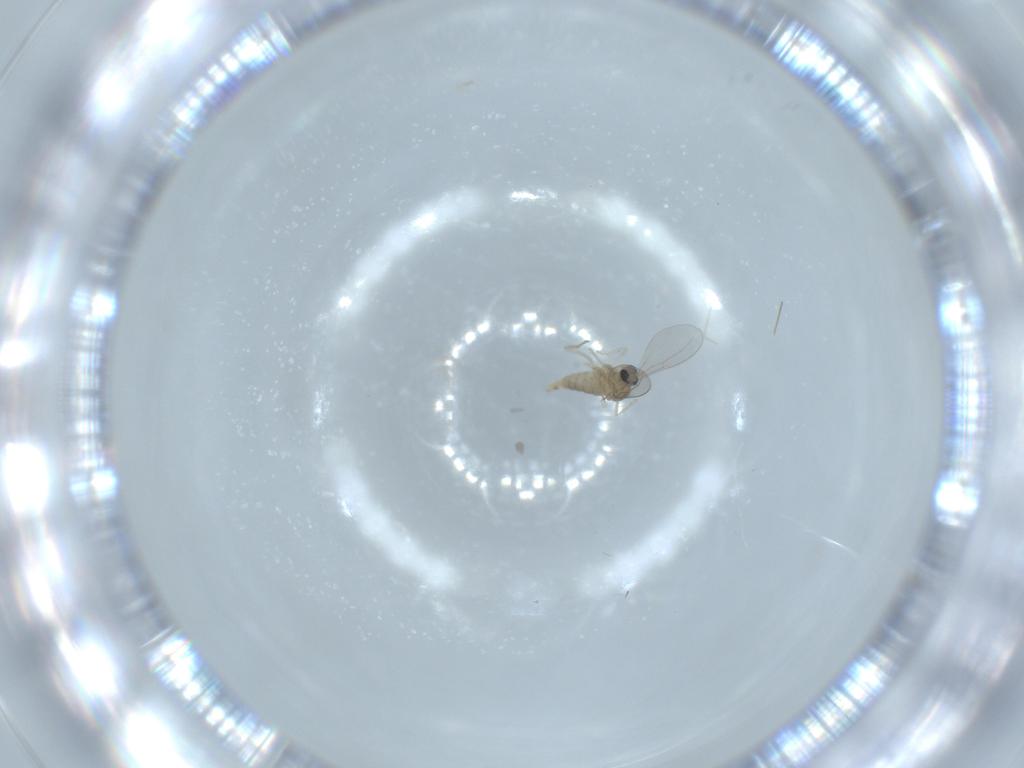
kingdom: Animalia
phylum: Arthropoda
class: Insecta
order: Diptera
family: Cecidomyiidae
